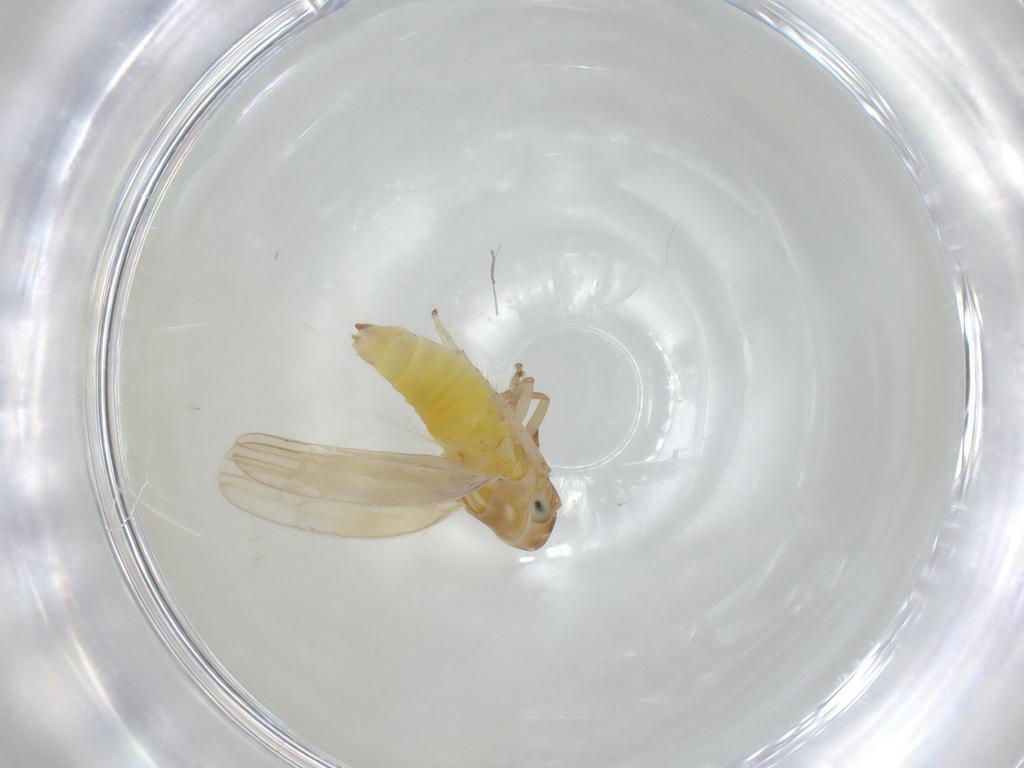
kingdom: Animalia
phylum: Arthropoda
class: Insecta
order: Hemiptera
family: Cicadellidae
